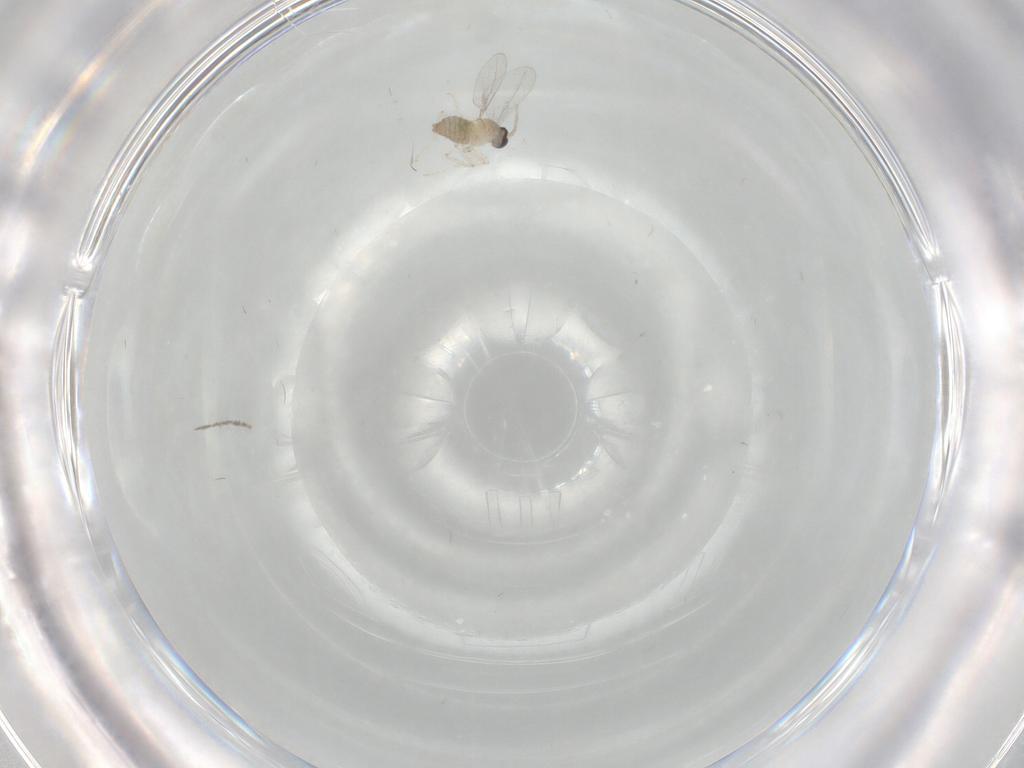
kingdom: Animalia
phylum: Arthropoda
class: Insecta
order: Diptera
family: Cecidomyiidae
